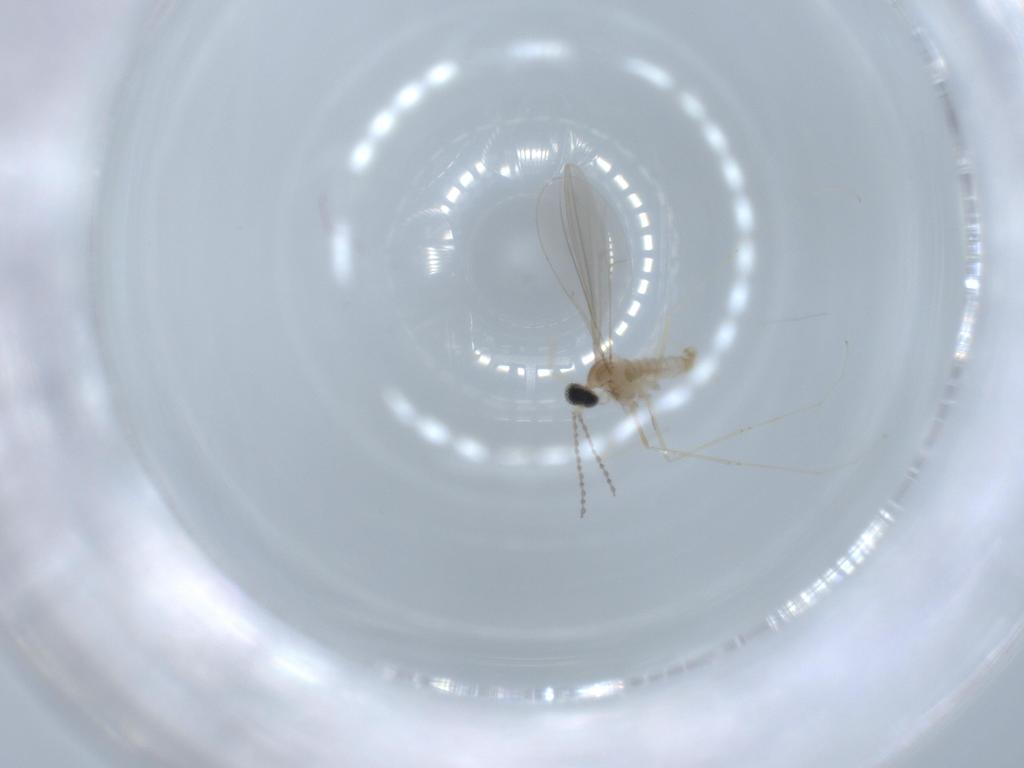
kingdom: Animalia
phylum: Arthropoda
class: Insecta
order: Diptera
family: Cecidomyiidae
